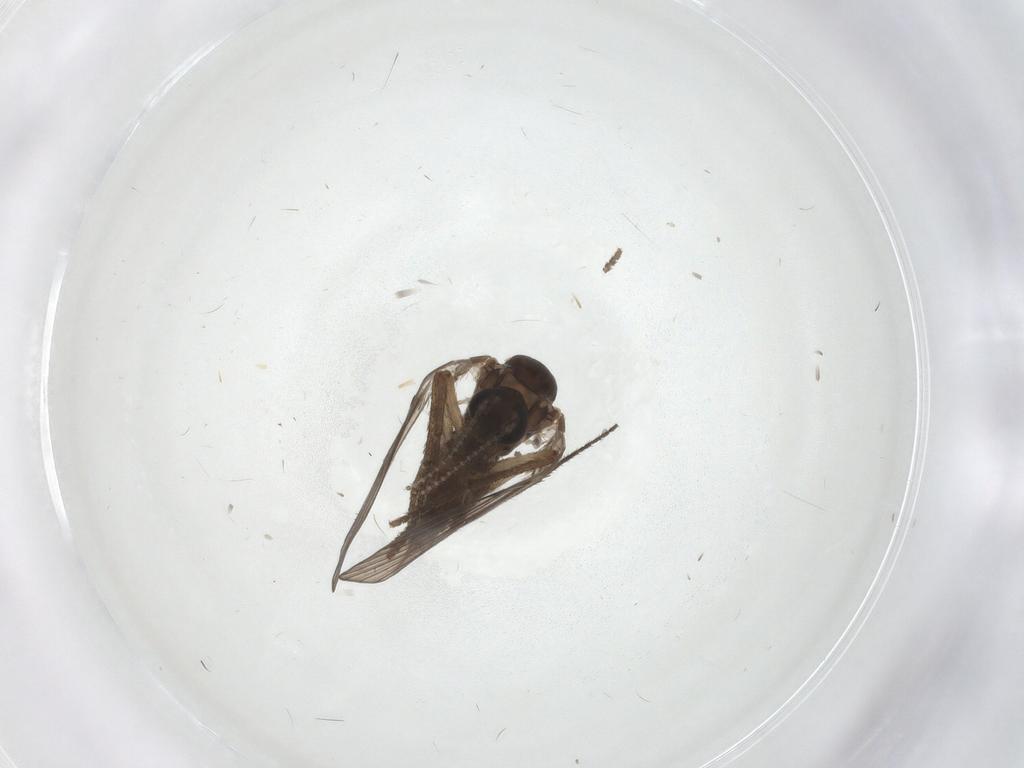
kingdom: Animalia
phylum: Arthropoda
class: Insecta
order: Diptera
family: Psychodidae
